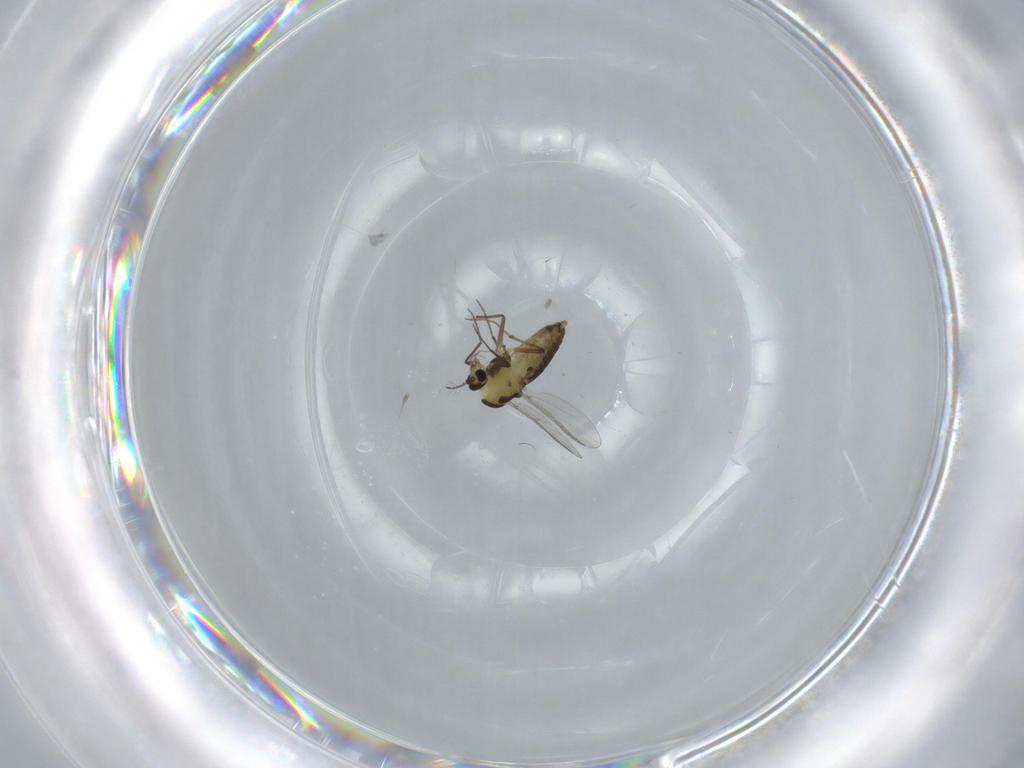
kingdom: Animalia
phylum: Arthropoda
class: Insecta
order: Diptera
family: Chironomidae
